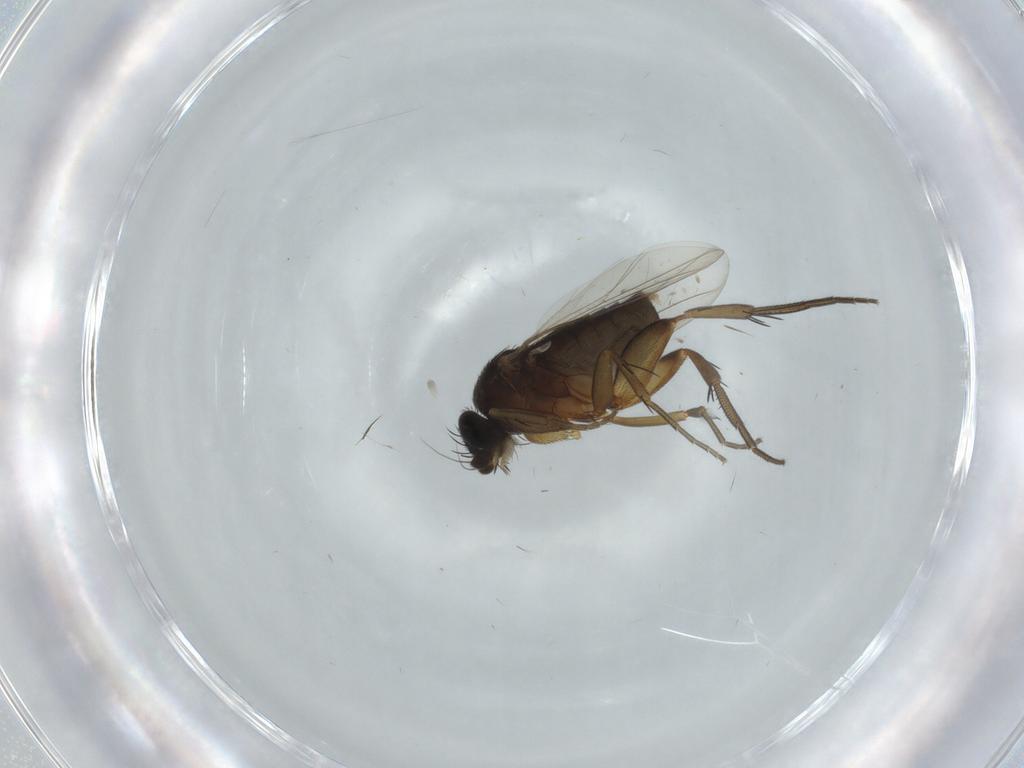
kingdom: Animalia
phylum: Arthropoda
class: Insecta
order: Diptera
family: Phoridae
